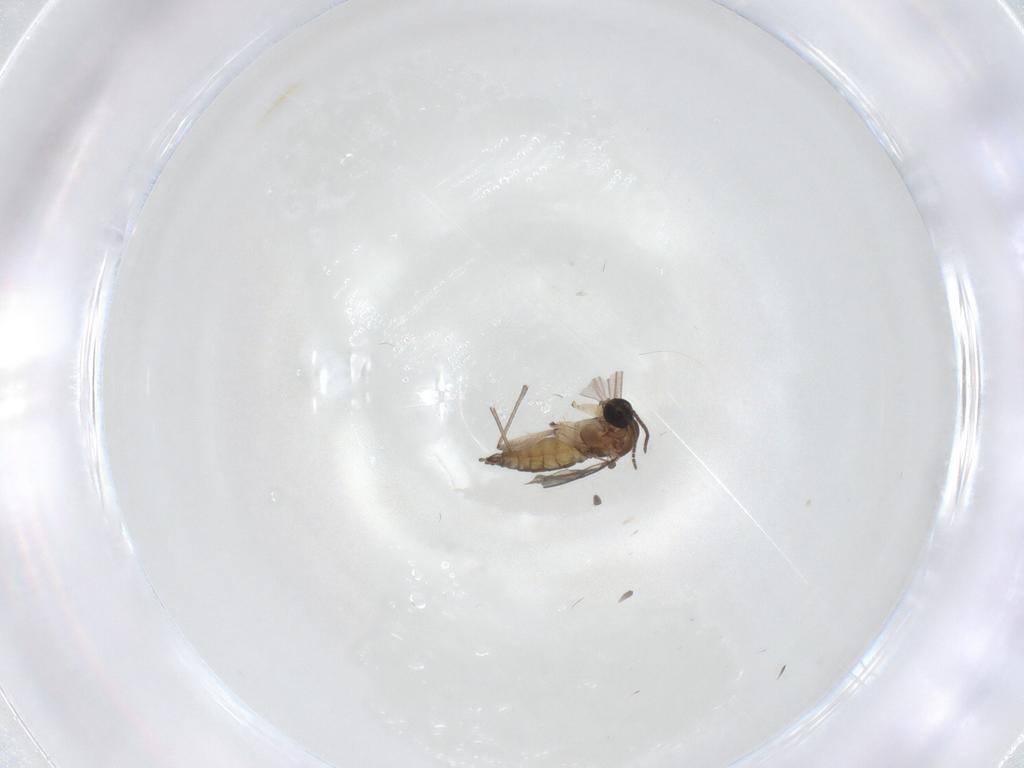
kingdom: Animalia
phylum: Arthropoda
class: Insecta
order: Diptera
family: Sciaridae
